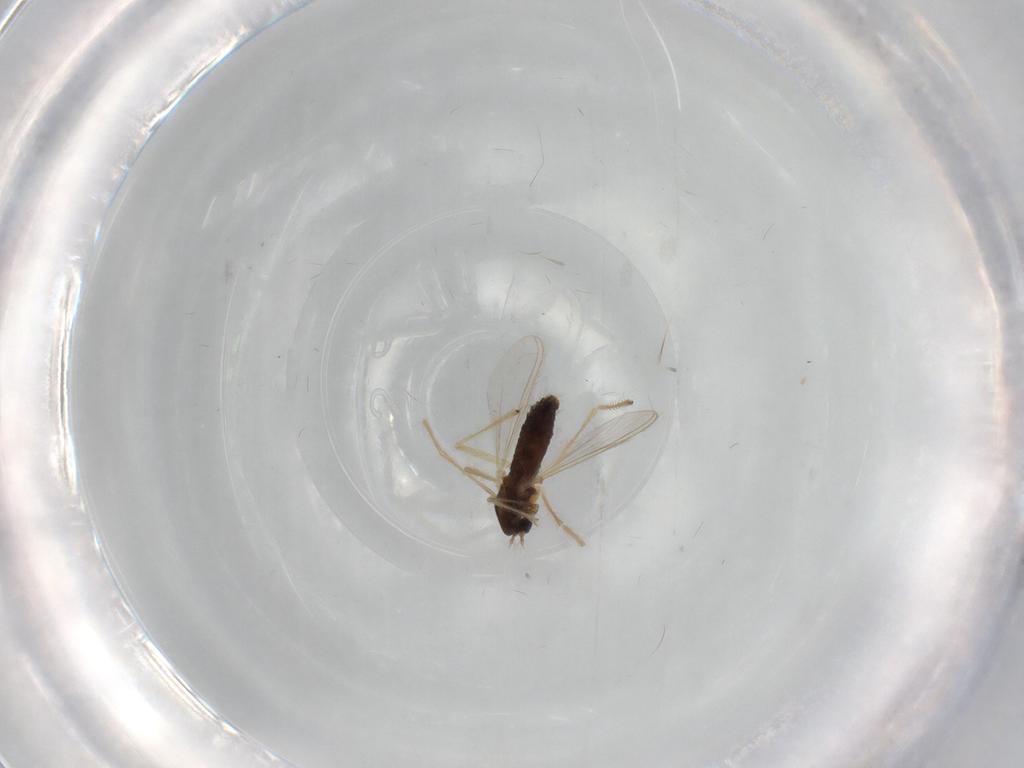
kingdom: Animalia
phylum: Arthropoda
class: Insecta
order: Diptera
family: Chironomidae
